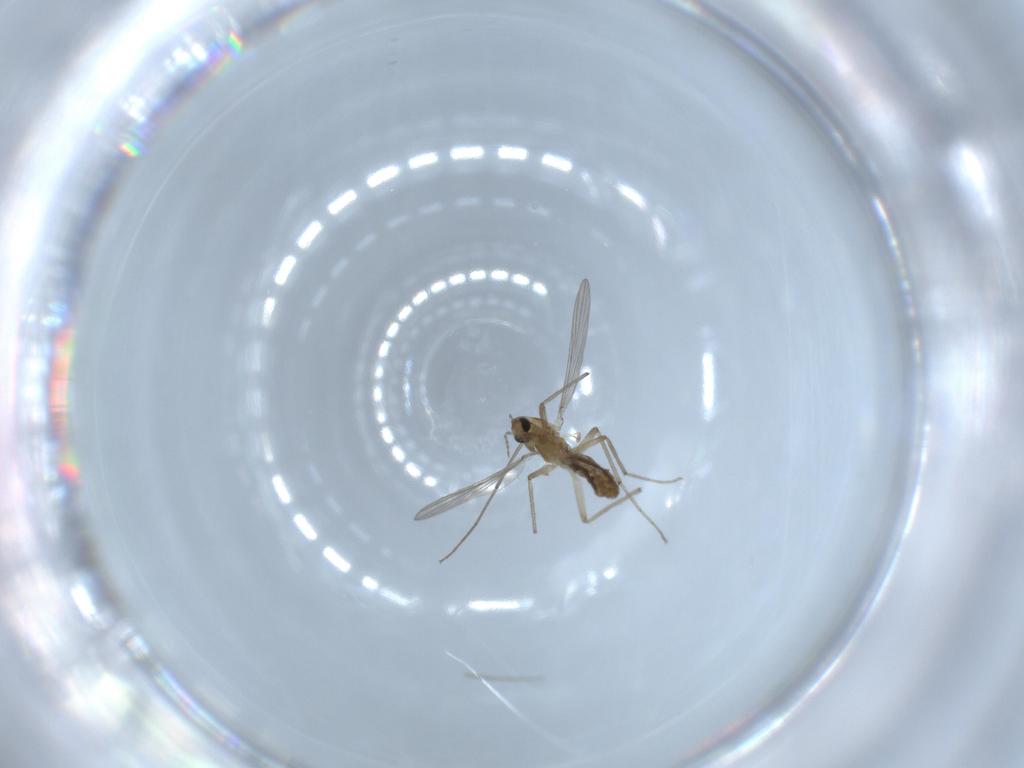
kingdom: Animalia
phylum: Arthropoda
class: Insecta
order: Diptera
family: Chironomidae
